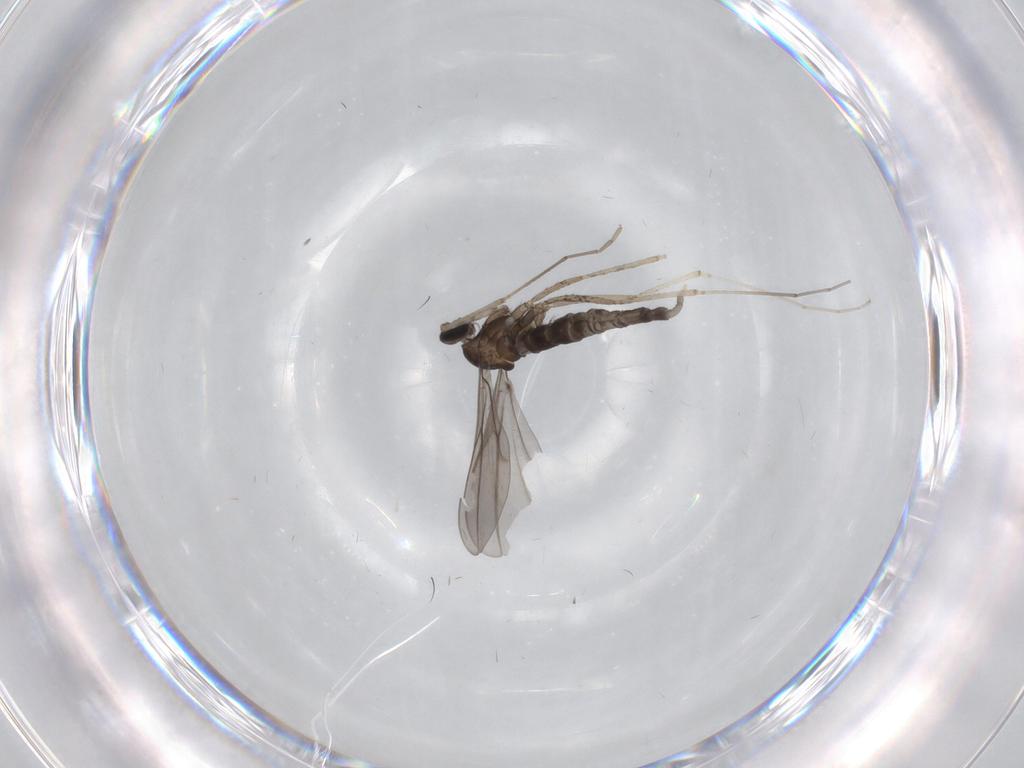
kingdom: Animalia
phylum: Arthropoda
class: Insecta
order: Diptera
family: Cecidomyiidae
